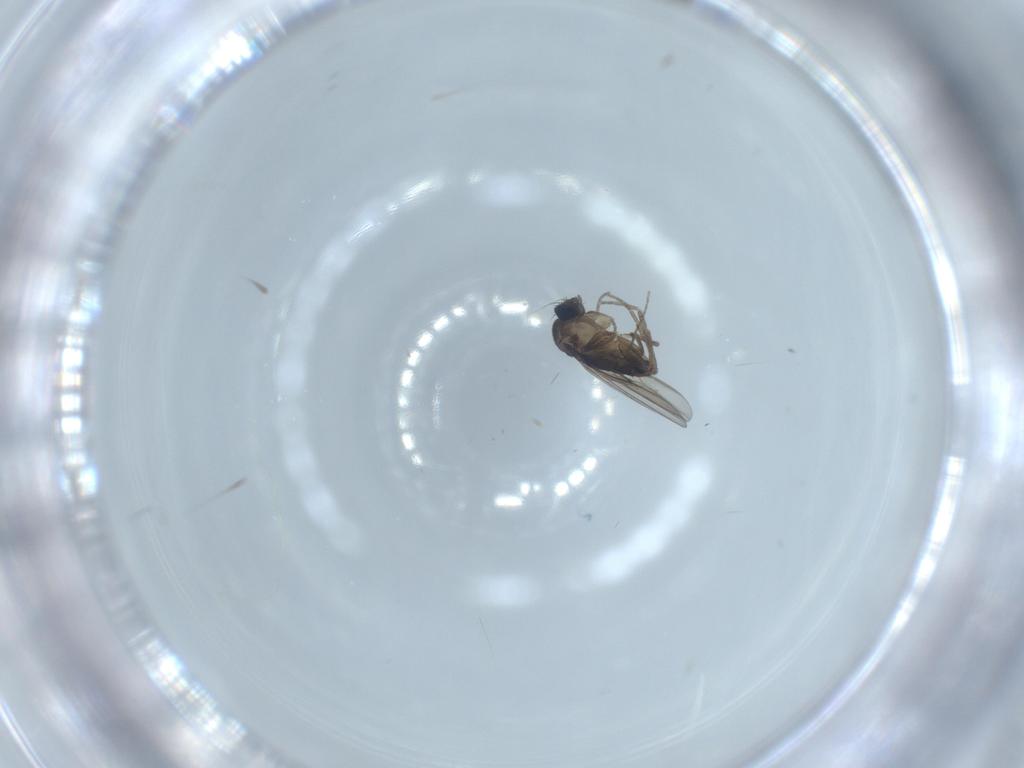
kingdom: Animalia
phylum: Arthropoda
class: Insecta
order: Diptera
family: Phoridae
